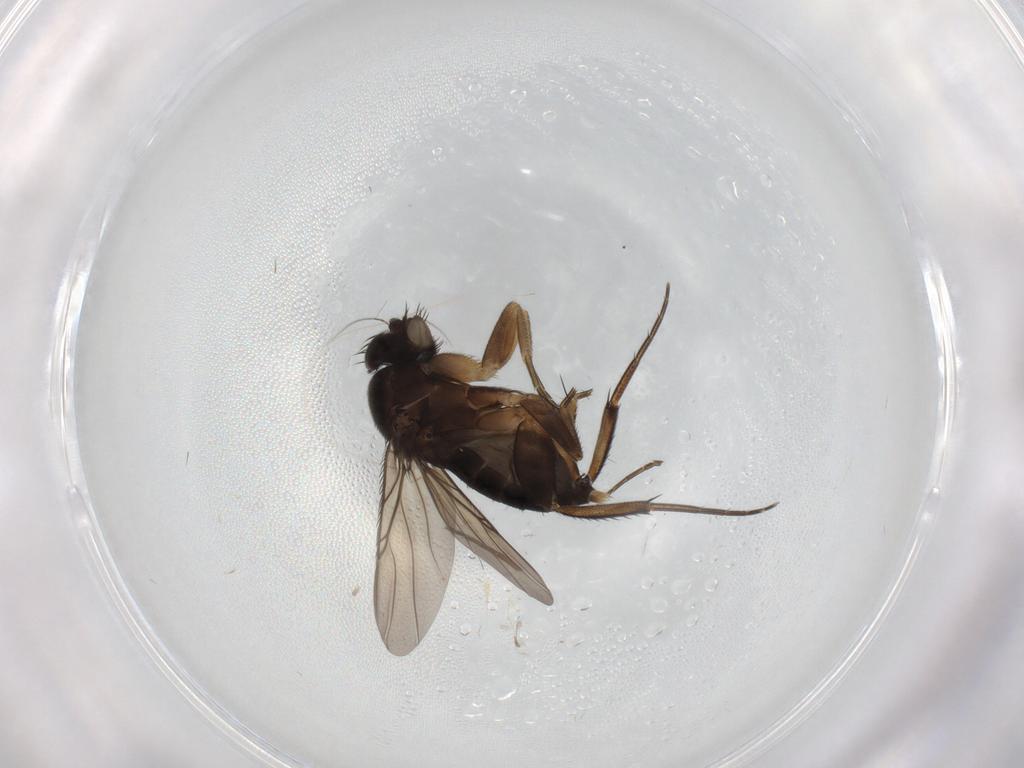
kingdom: Animalia
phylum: Arthropoda
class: Insecta
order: Diptera
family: Phoridae
